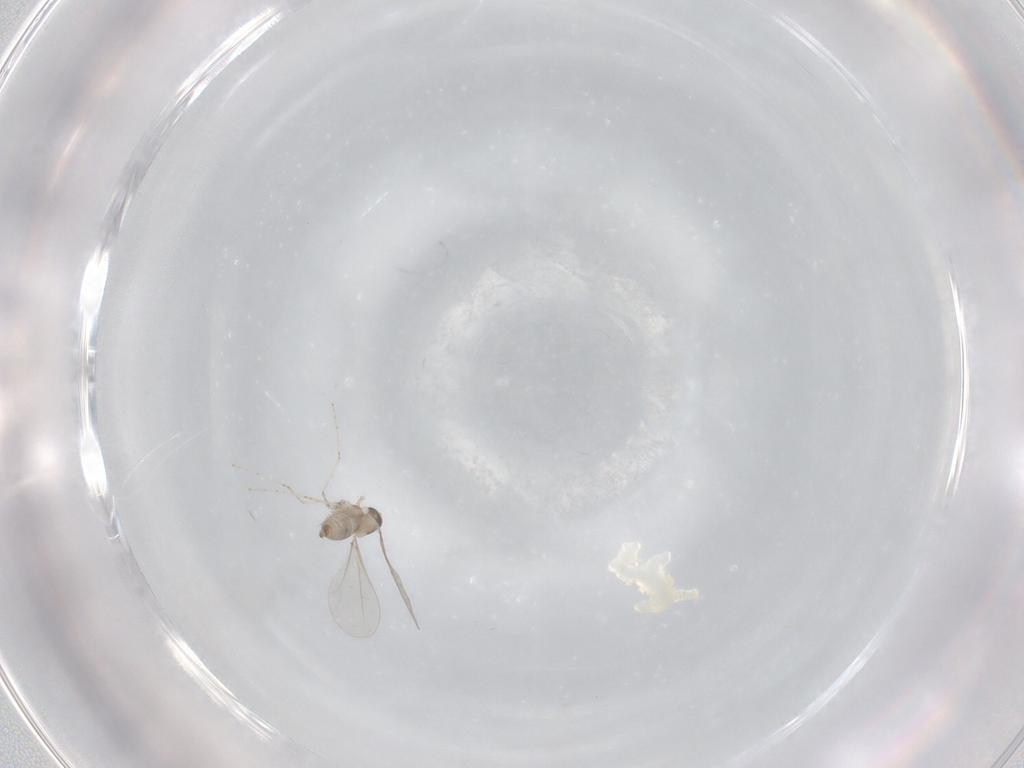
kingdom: Animalia
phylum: Arthropoda
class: Insecta
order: Diptera
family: Cecidomyiidae
